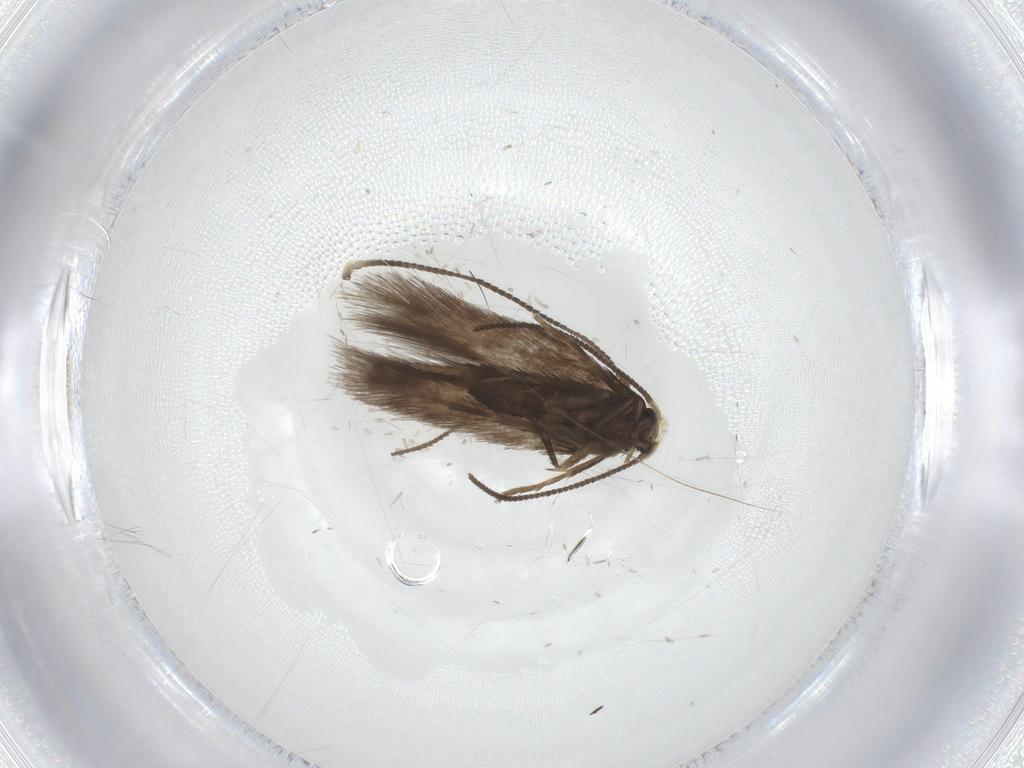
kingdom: Animalia
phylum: Arthropoda
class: Insecta
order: Lepidoptera
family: Nepticulidae
